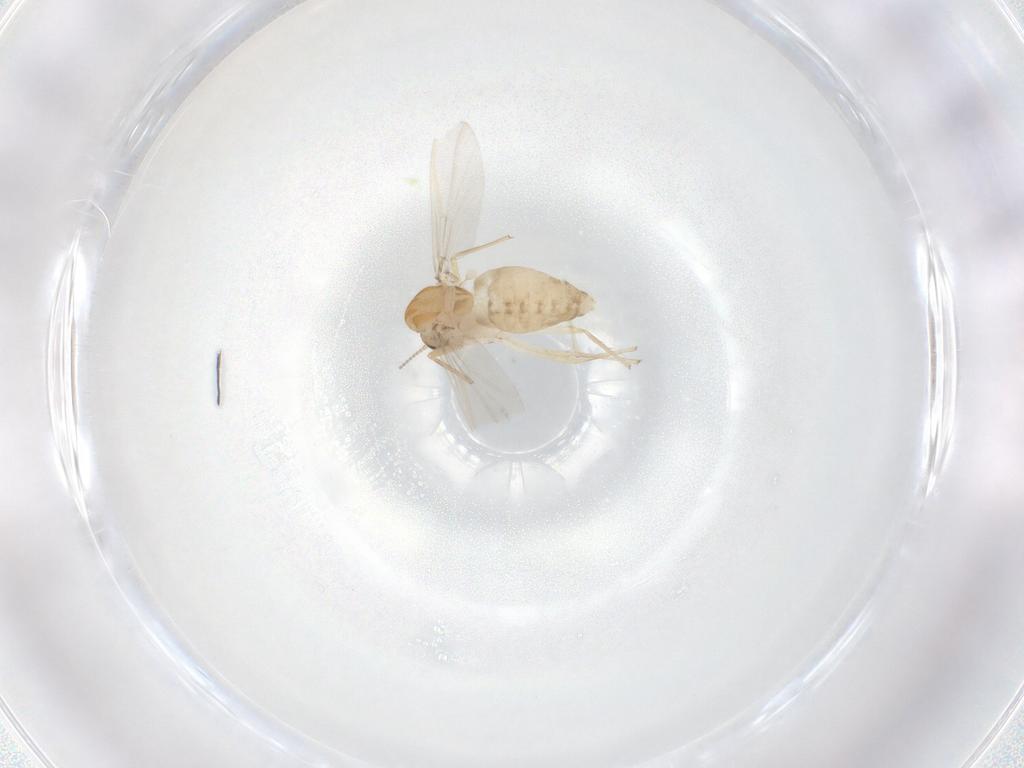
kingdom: Animalia
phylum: Arthropoda
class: Insecta
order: Diptera
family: Chironomidae
